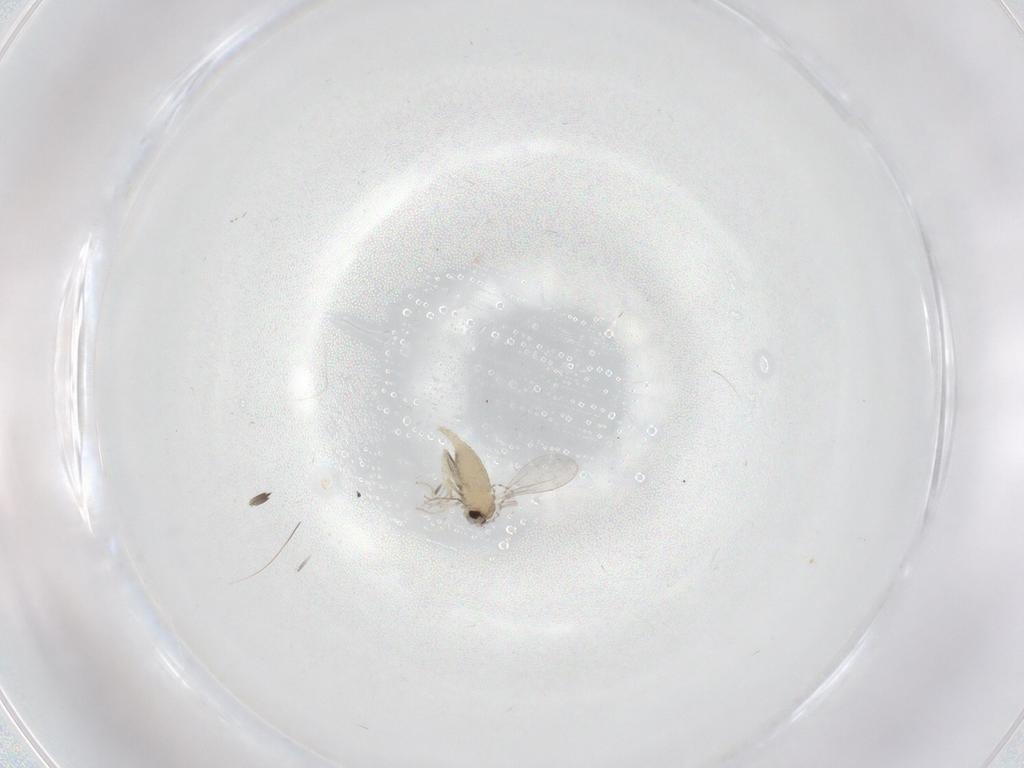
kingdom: Animalia
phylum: Arthropoda
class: Insecta
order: Diptera
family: Cecidomyiidae
